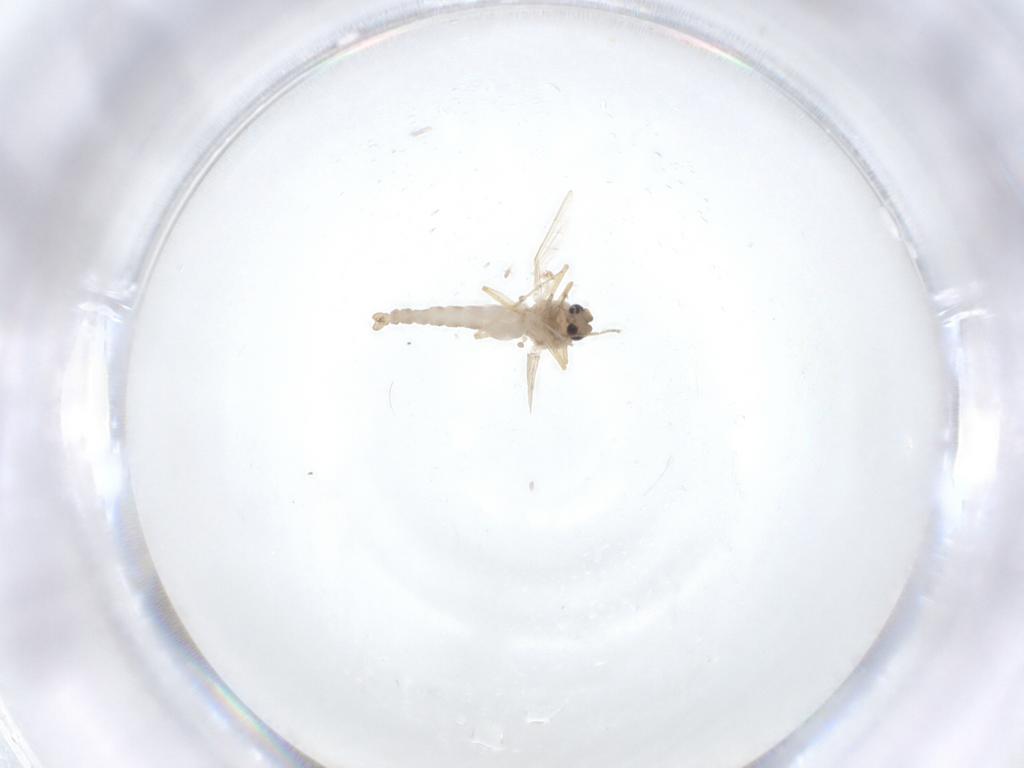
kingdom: Animalia
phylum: Arthropoda
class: Insecta
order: Diptera
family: Ceratopogonidae
